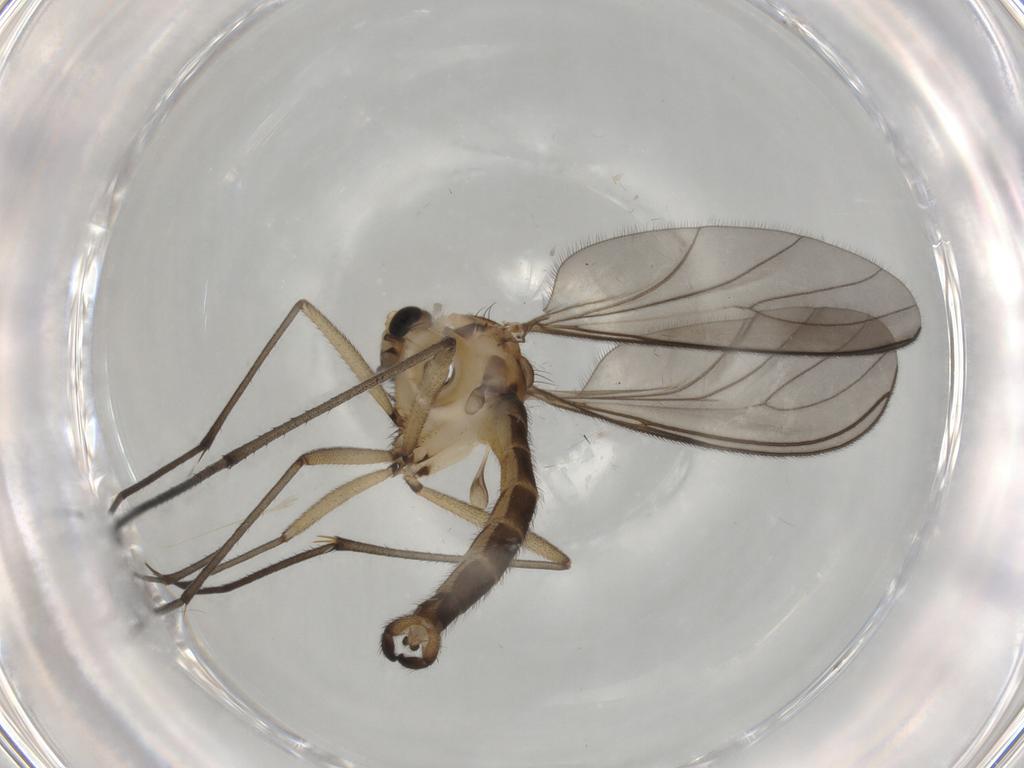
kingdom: Animalia
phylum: Arthropoda
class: Insecta
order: Diptera
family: Sciaridae
